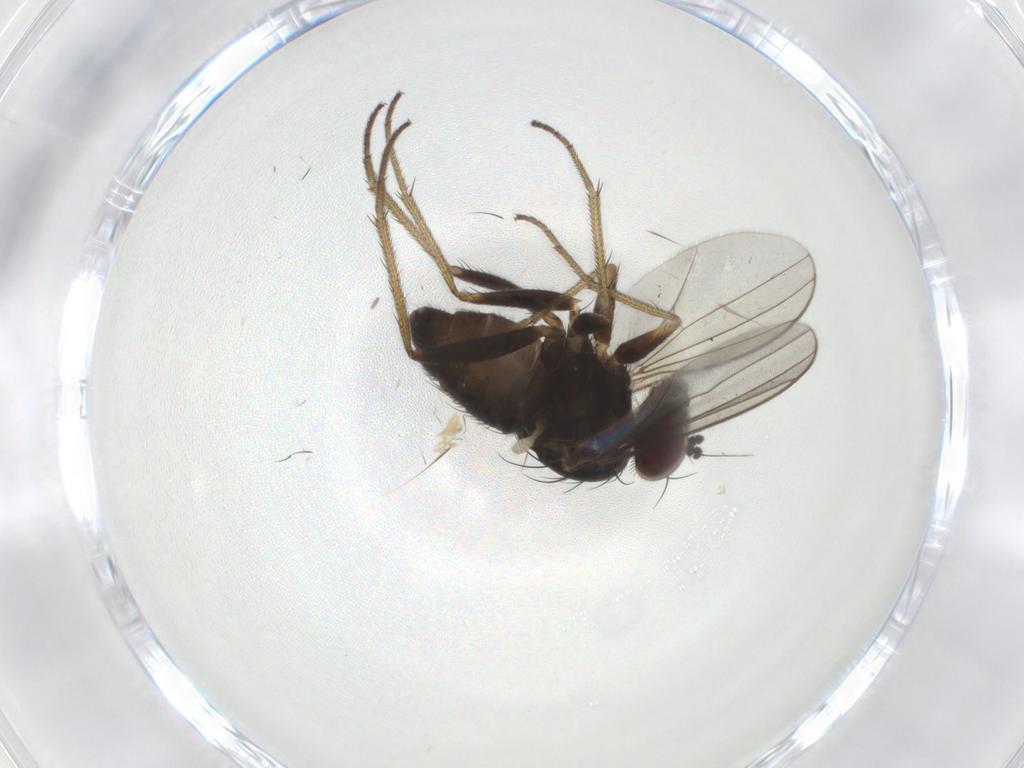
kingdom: Animalia
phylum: Arthropoda
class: Insecta
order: Diptera
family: Dolichopodidae
